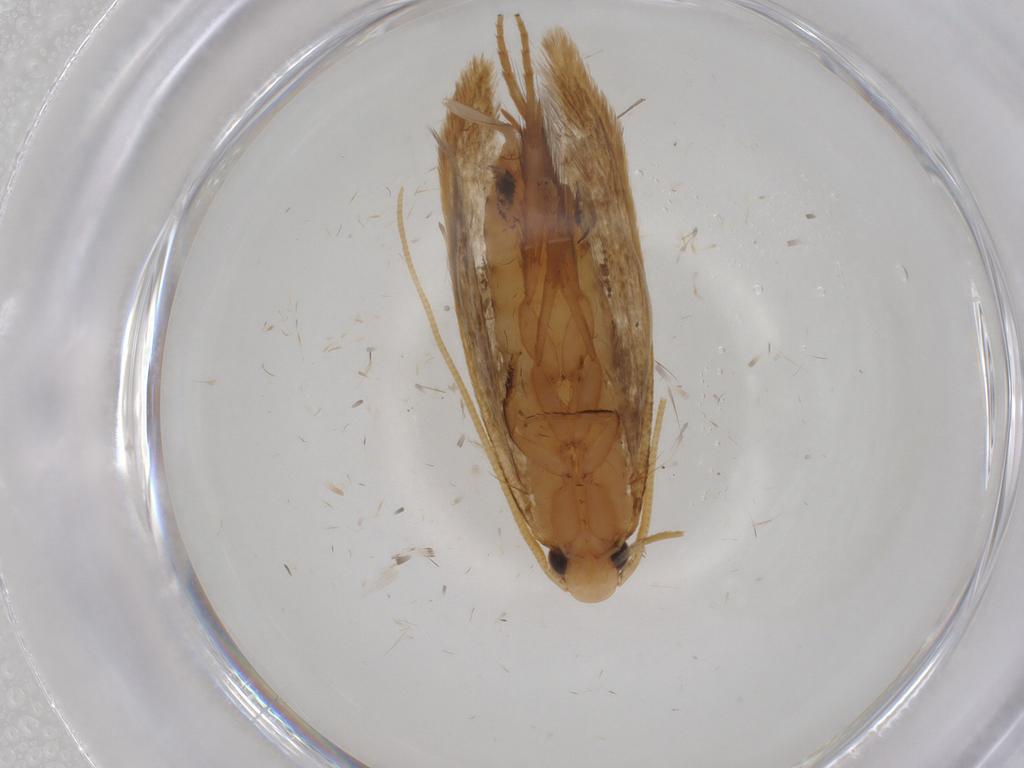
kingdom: Animalia
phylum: Arthropoda
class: Insecta
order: Lepidoptera
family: Tineidae
